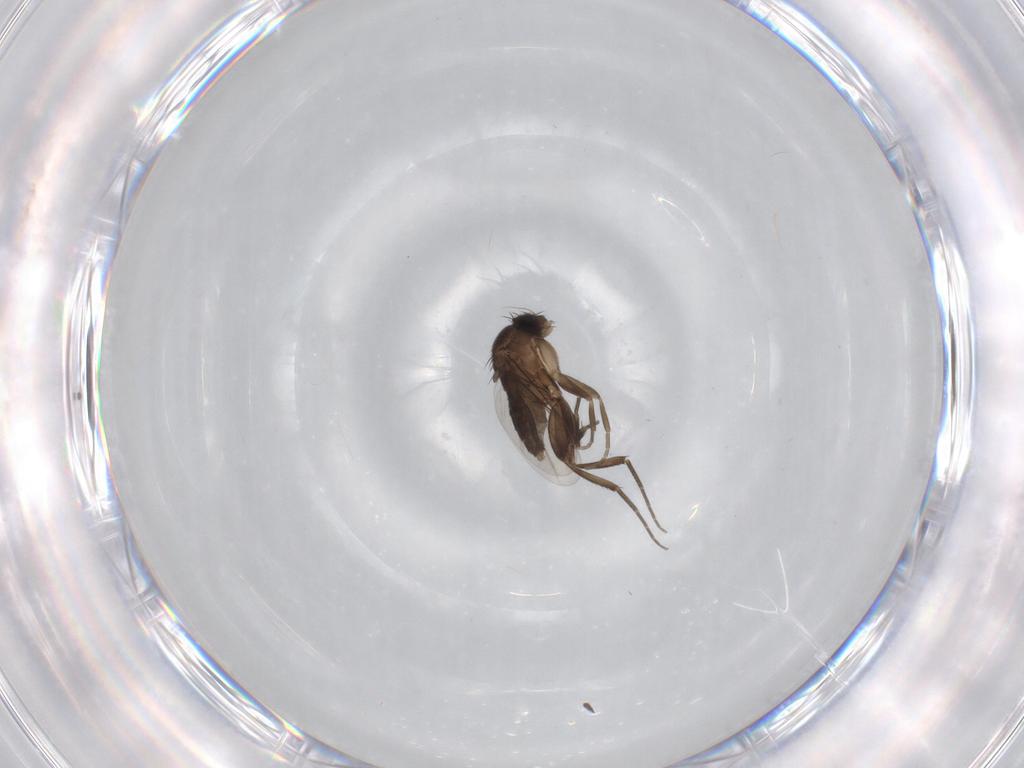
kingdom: Animalia
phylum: Arthropoda
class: Insecta
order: Diptera
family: Phoridae
